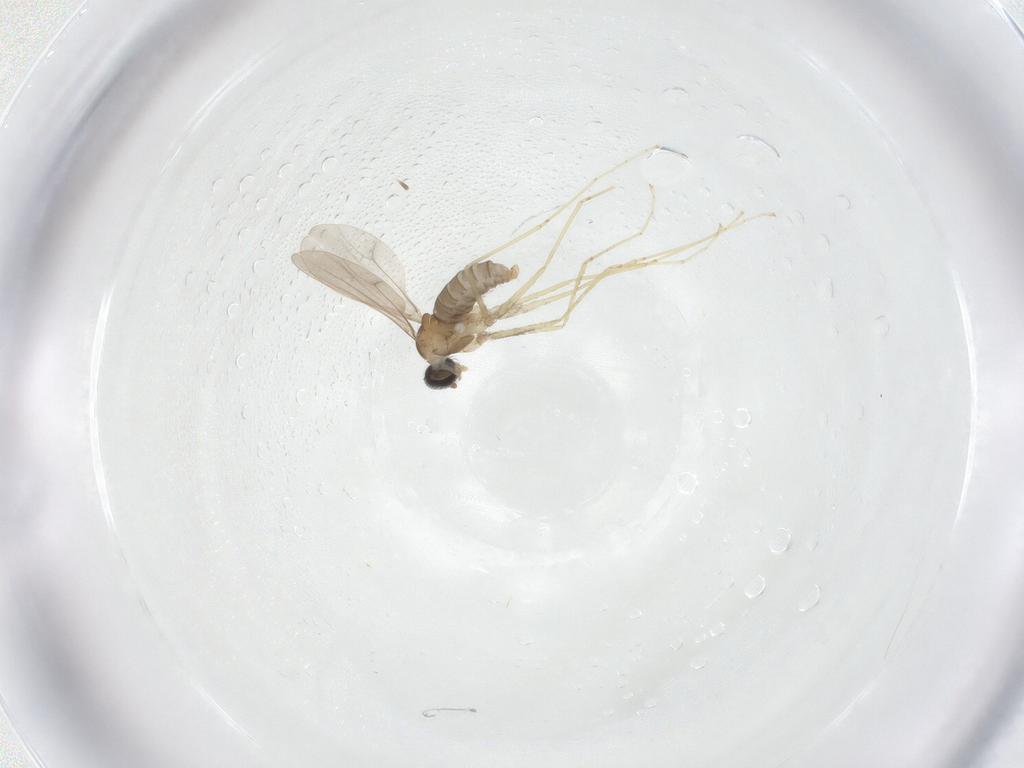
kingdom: Animalia
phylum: Arthropoda
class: Insecta
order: Diptera
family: Cecidomyiidae
